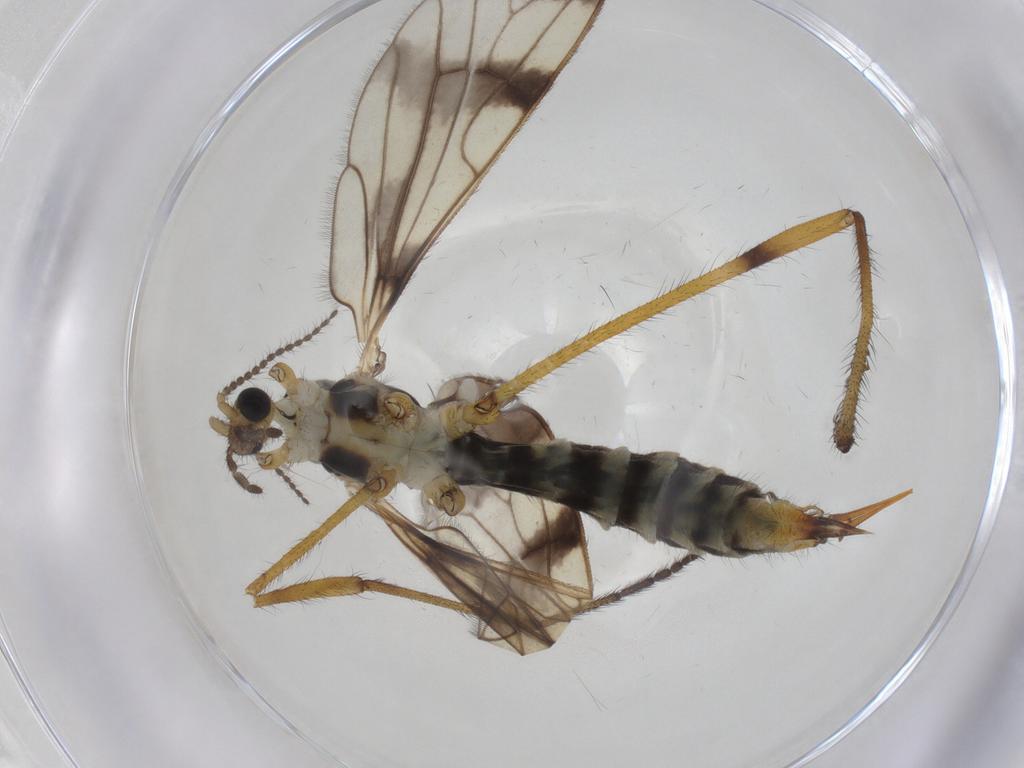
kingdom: Animalia
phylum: Arthropoda
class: Insecta
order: Diptera
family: Limoniidae
